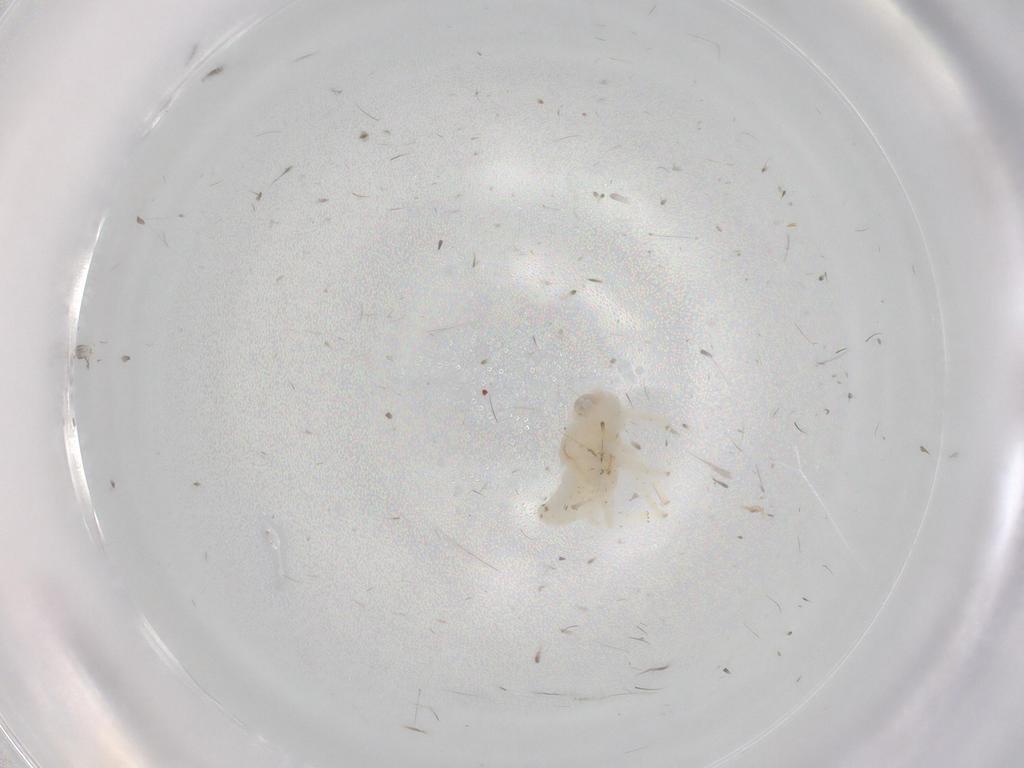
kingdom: Animalia
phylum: Arthropoda
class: Insecta
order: Hemiptera
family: Nogodinidae
